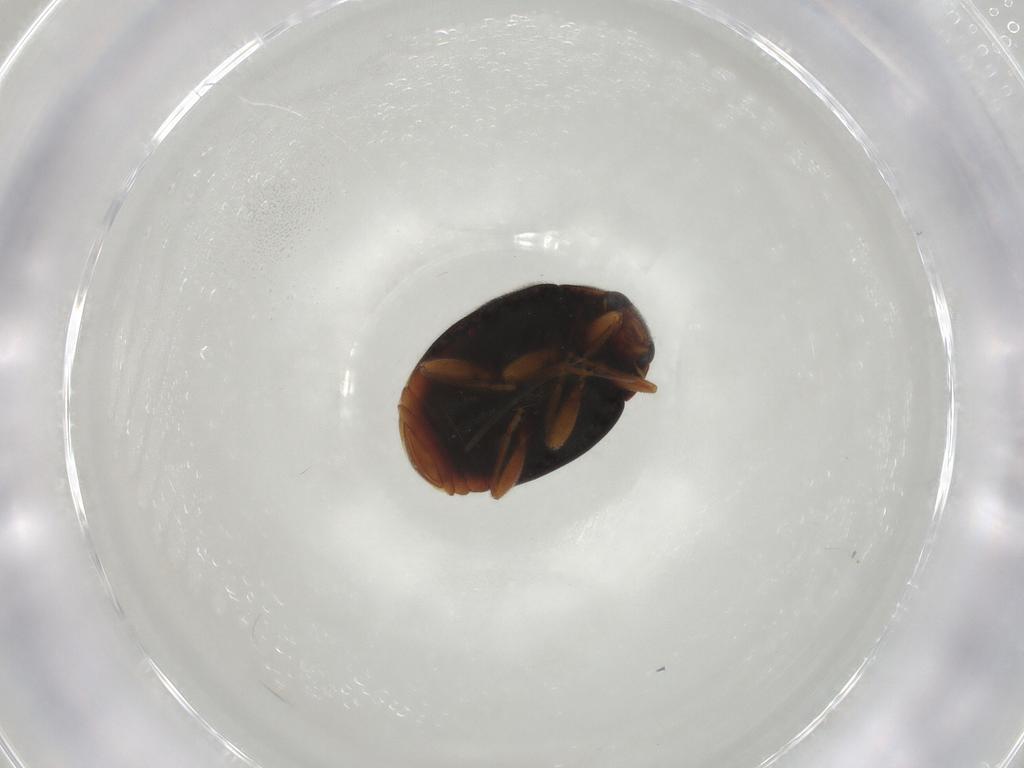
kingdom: Animalia
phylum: Arthropoda
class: Insecta
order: Coleoptera
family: Coccinellidae
